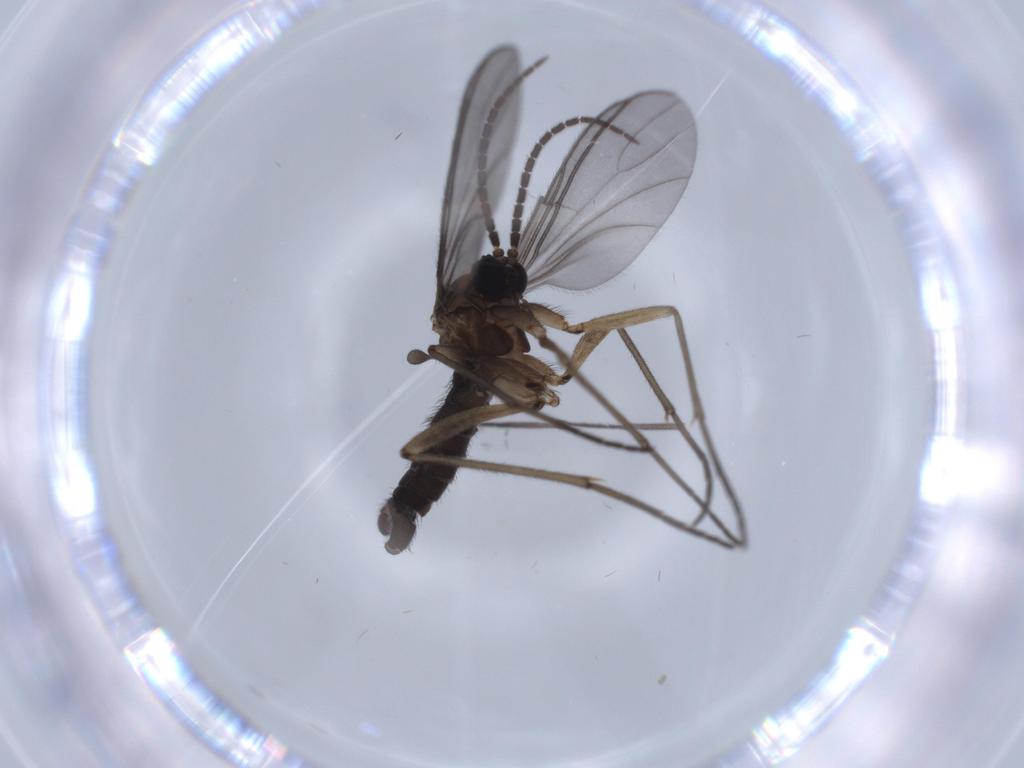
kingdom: Animalia
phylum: Arthropoda
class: Insecta
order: Diptera
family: Sciaridae
